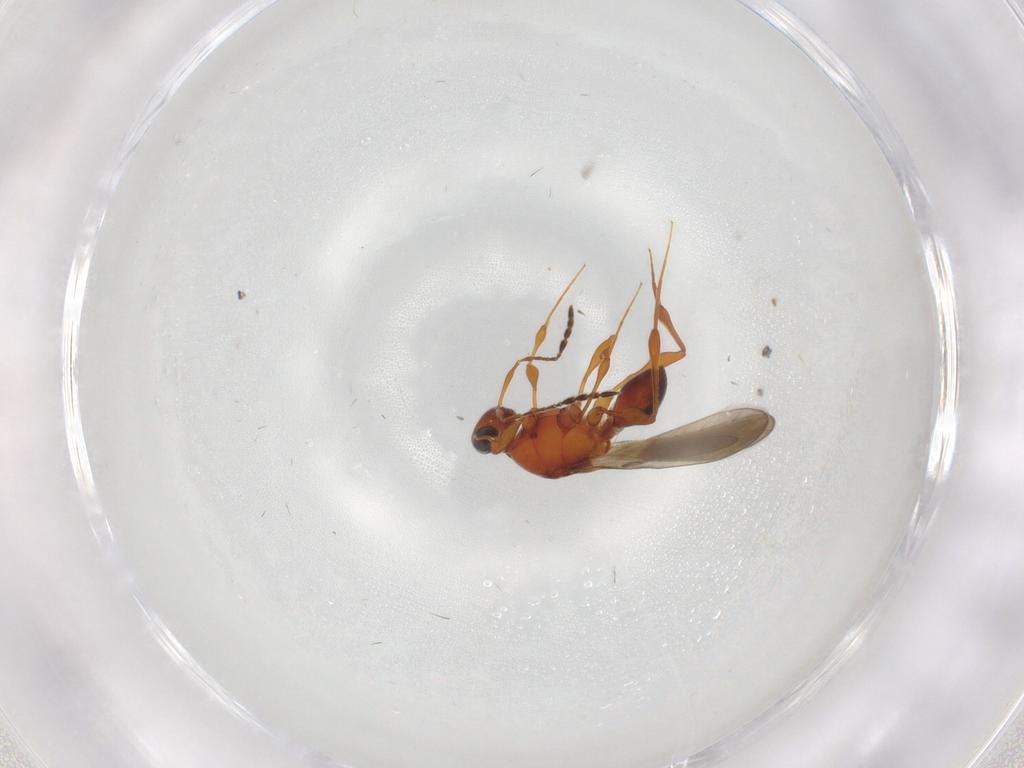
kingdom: Animalia
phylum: Arthropoda
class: Insecta
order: Hymenoptera
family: Platygastridae
